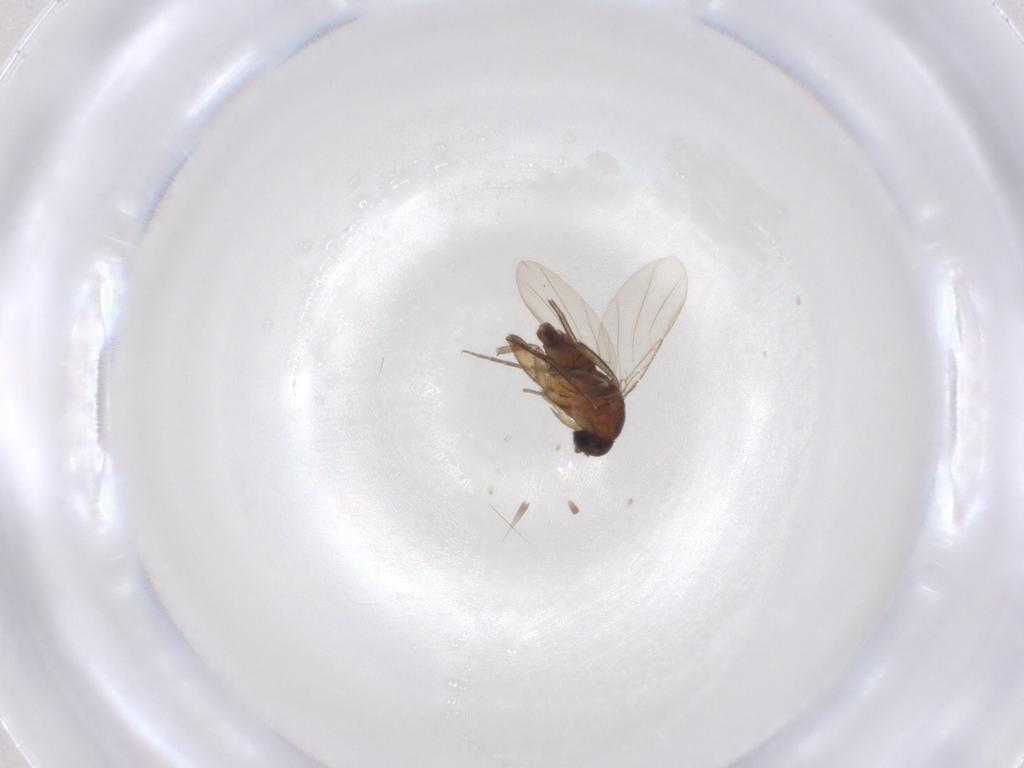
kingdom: Animalia
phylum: Arthropoda
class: Insecta
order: Diptera
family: Phoridae
